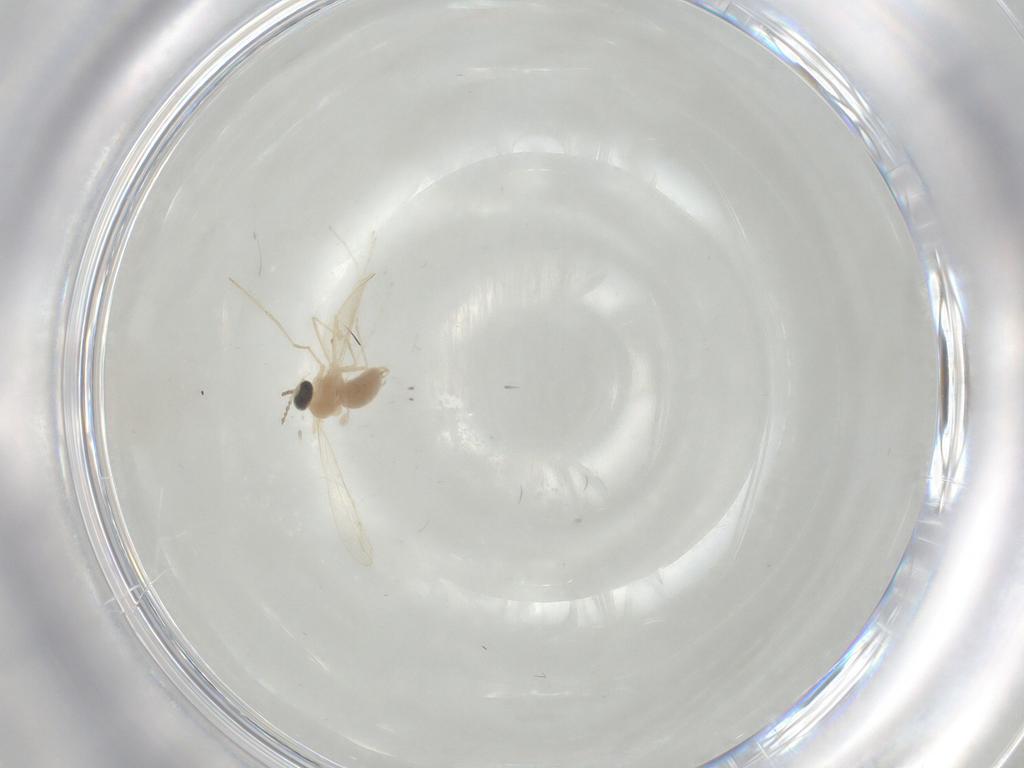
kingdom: Animalia
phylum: Arthropoda
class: Insecta
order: Diptera
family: Cecidomyiidae
